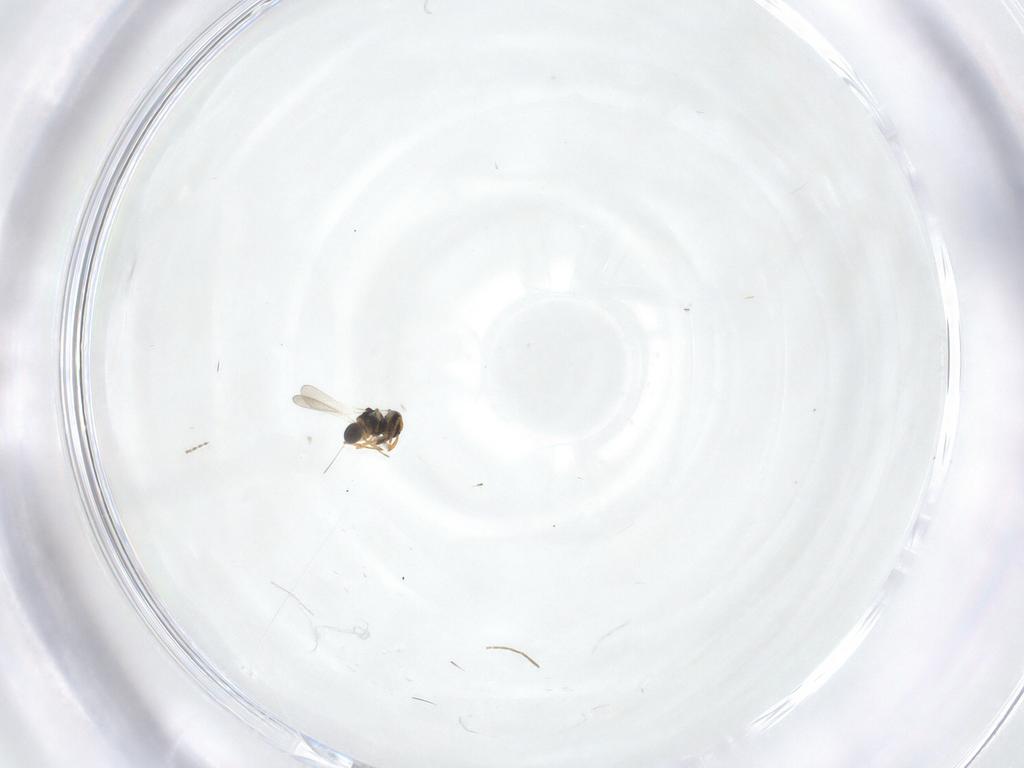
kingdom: Animalia
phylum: Arthropoda
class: Insecta
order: Hymenoptera
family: Platygastridae
